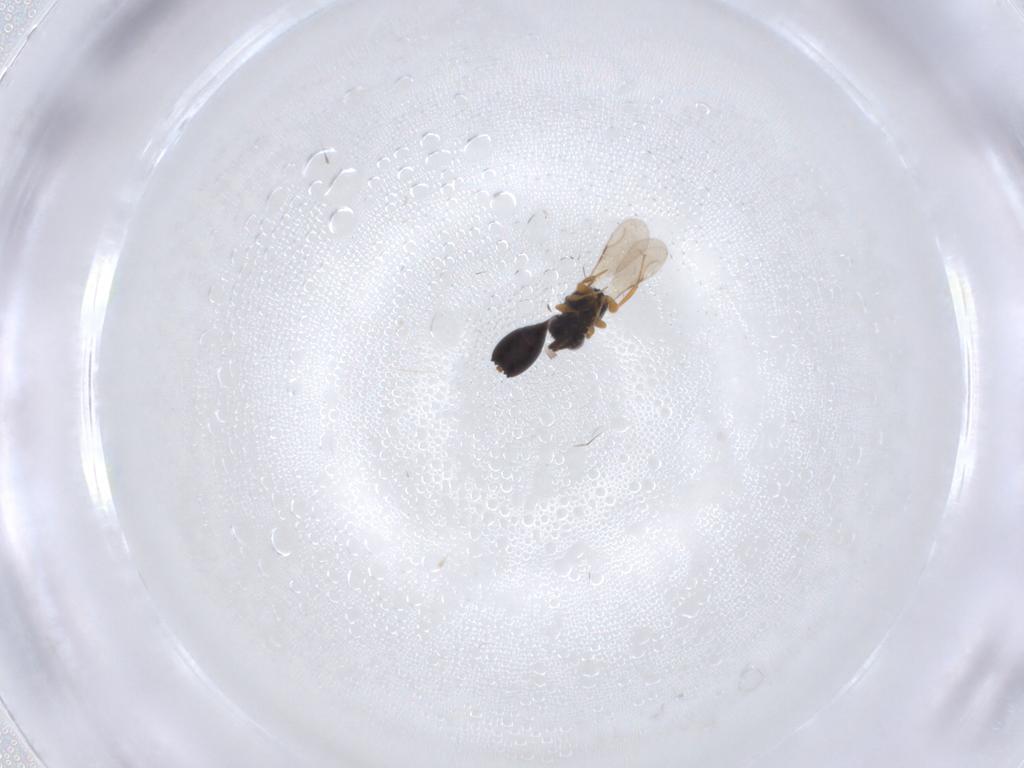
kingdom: Animalia
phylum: Arthropoda
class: Insecta
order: Hymenoptera
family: Ceraphronidae
